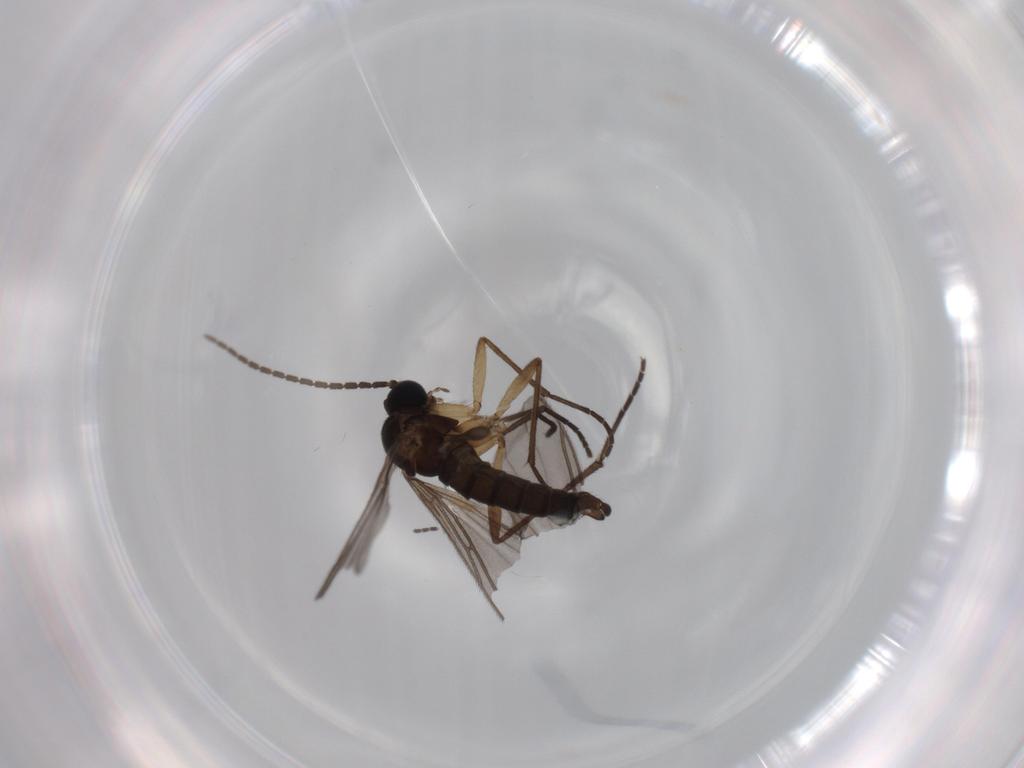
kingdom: Animalia
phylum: Arthropoda
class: Insecta
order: Diptera
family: Sciaridae
